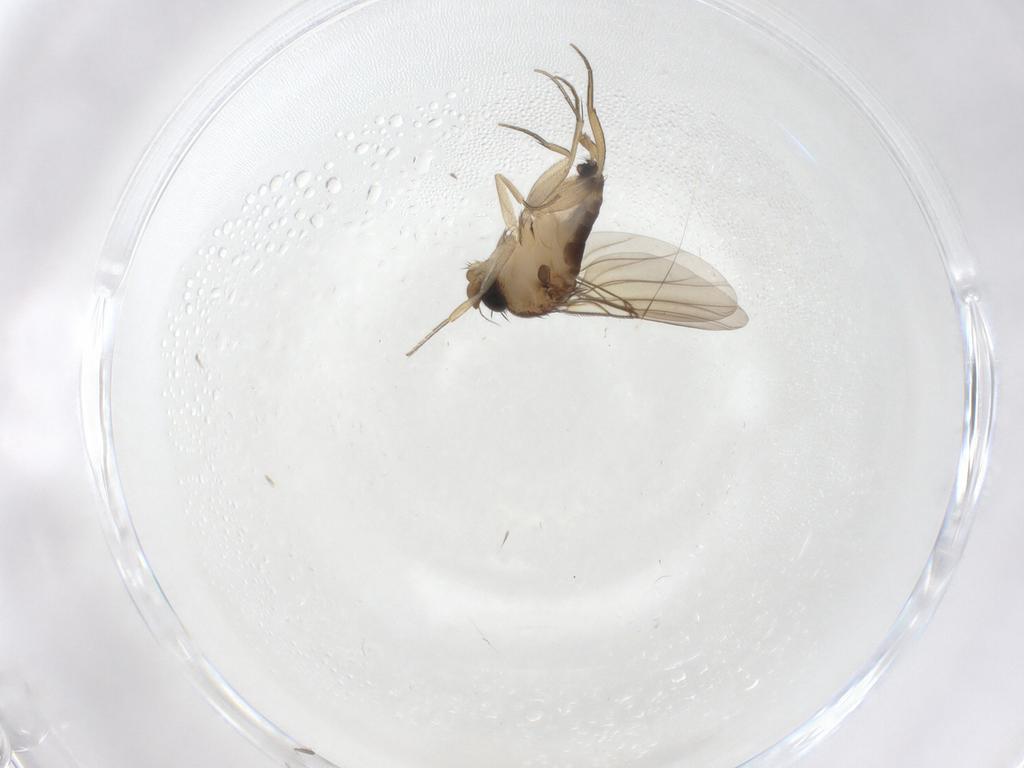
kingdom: Animalia
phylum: Arthropoda
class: Insecta
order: Diptera
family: Phoridae
